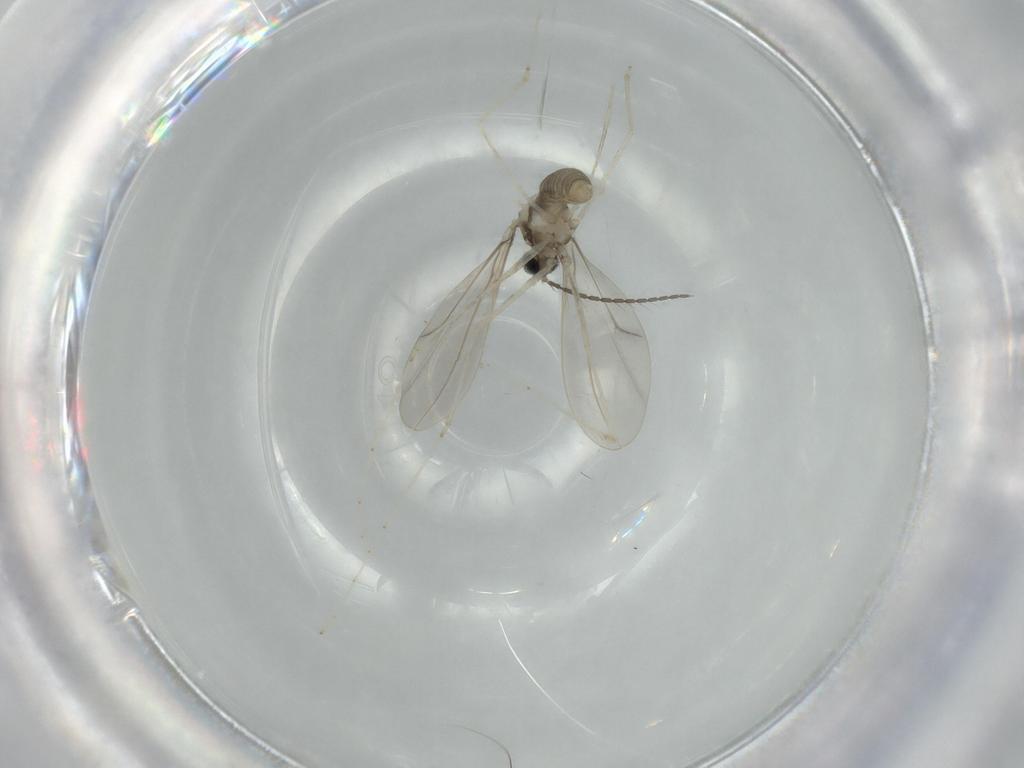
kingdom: Animalia
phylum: Arthropoda
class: Insecta
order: Diptera
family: Cecidomyiidae
